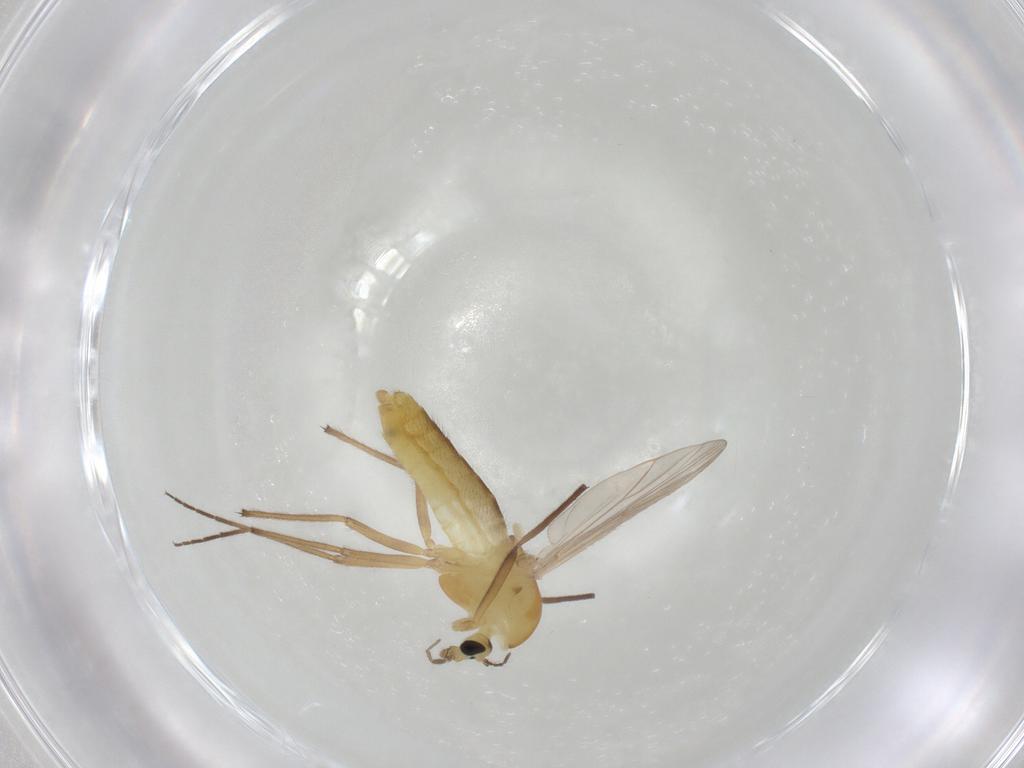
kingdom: Animalia
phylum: Arthropoda
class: Insecta
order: Diptera
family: Chironomidae
